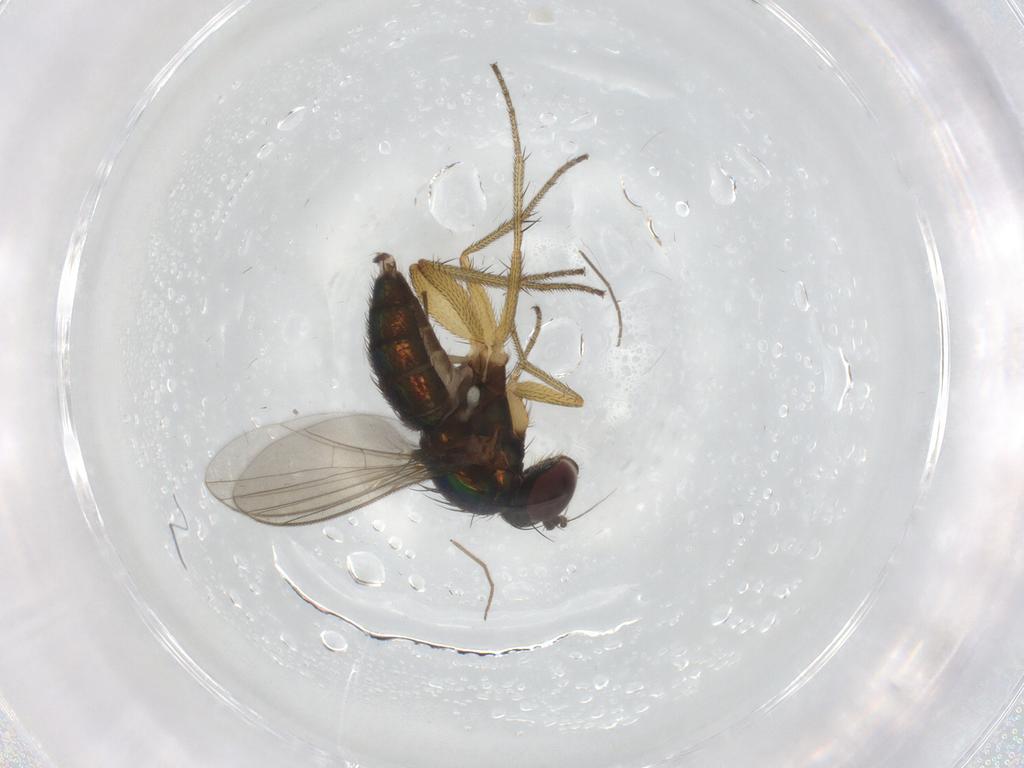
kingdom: Animalia
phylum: Arthropoda
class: Insecta
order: Diptera
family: Dolichopodidae
